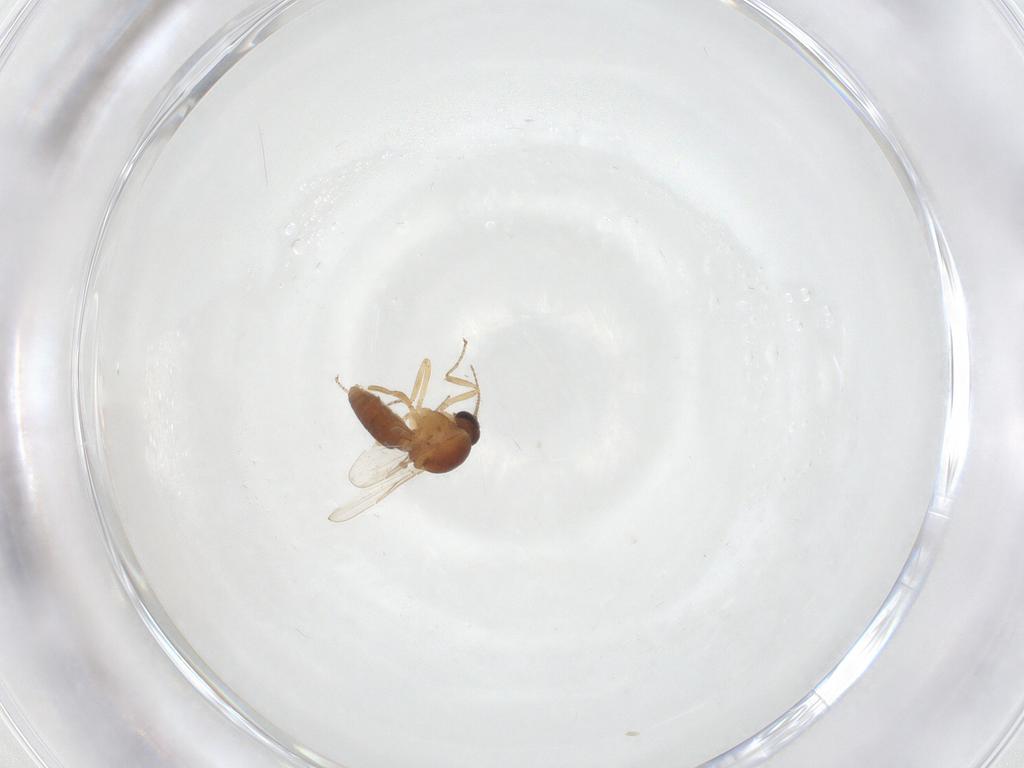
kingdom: Animalia
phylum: Arthropoda
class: Insecta
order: Diptera
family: Ceratopogonidae
